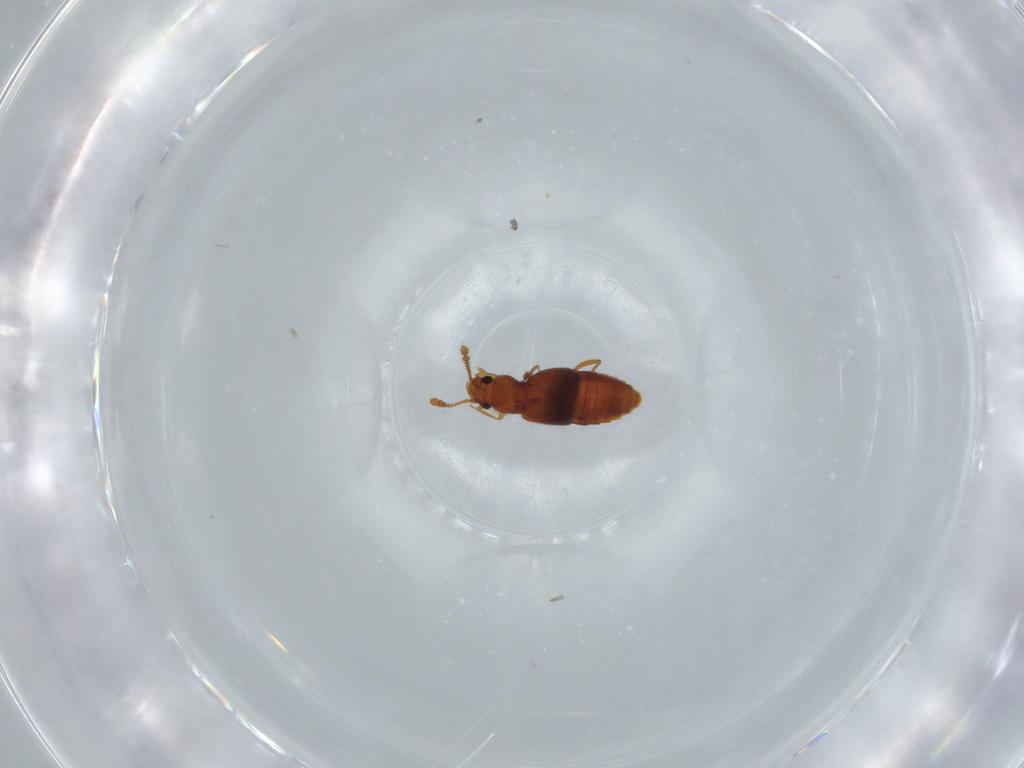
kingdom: Animalia
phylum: Arthropoda
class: Insecta
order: Coleoptera
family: Staphylinidae
